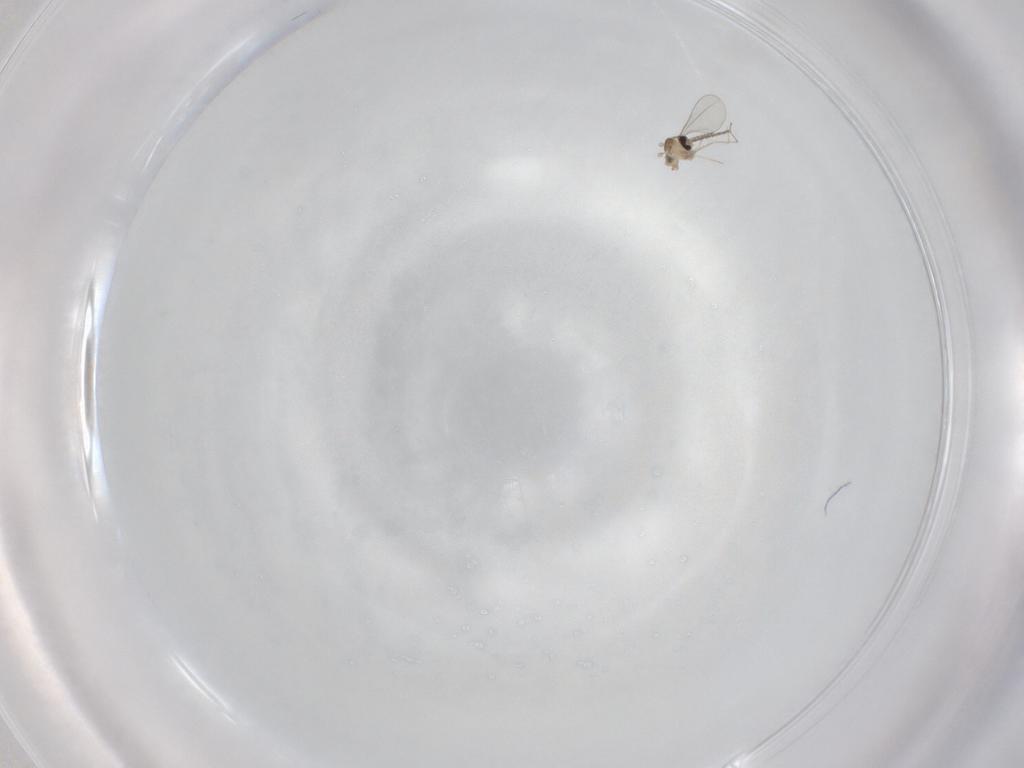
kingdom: Animalia
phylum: Arthropoda
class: Insecta
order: Diptera
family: Cecidomyiidae
